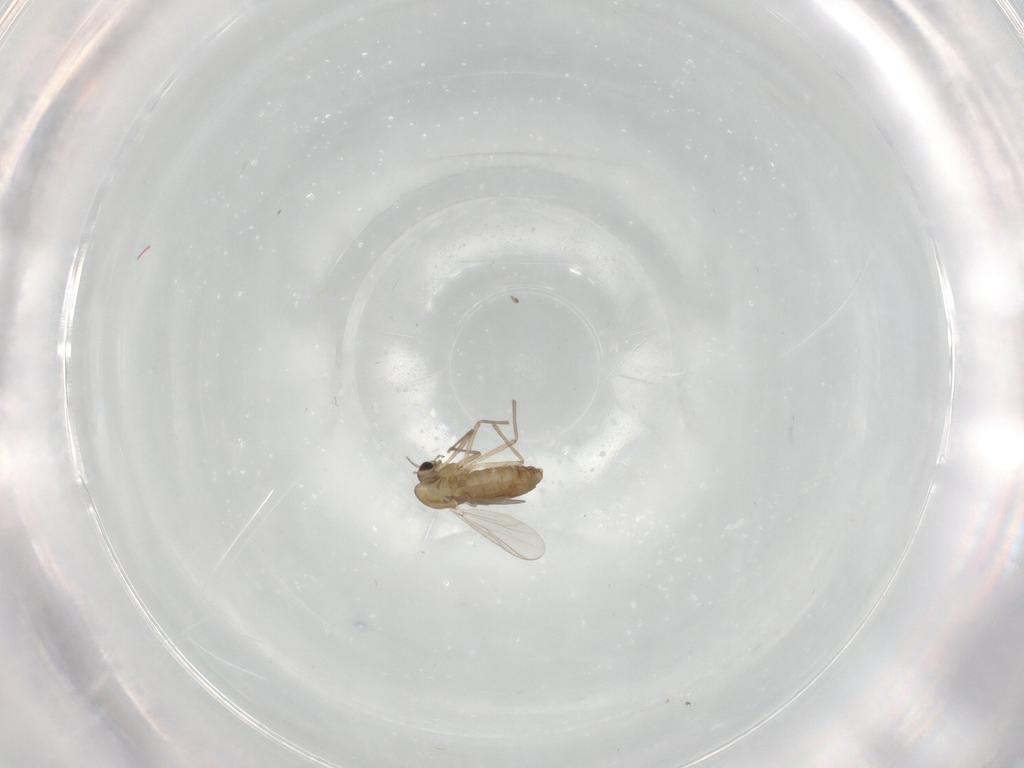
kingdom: Animalia
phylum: Arthropoda
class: Insecta
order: Diptera
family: Chironomidae
